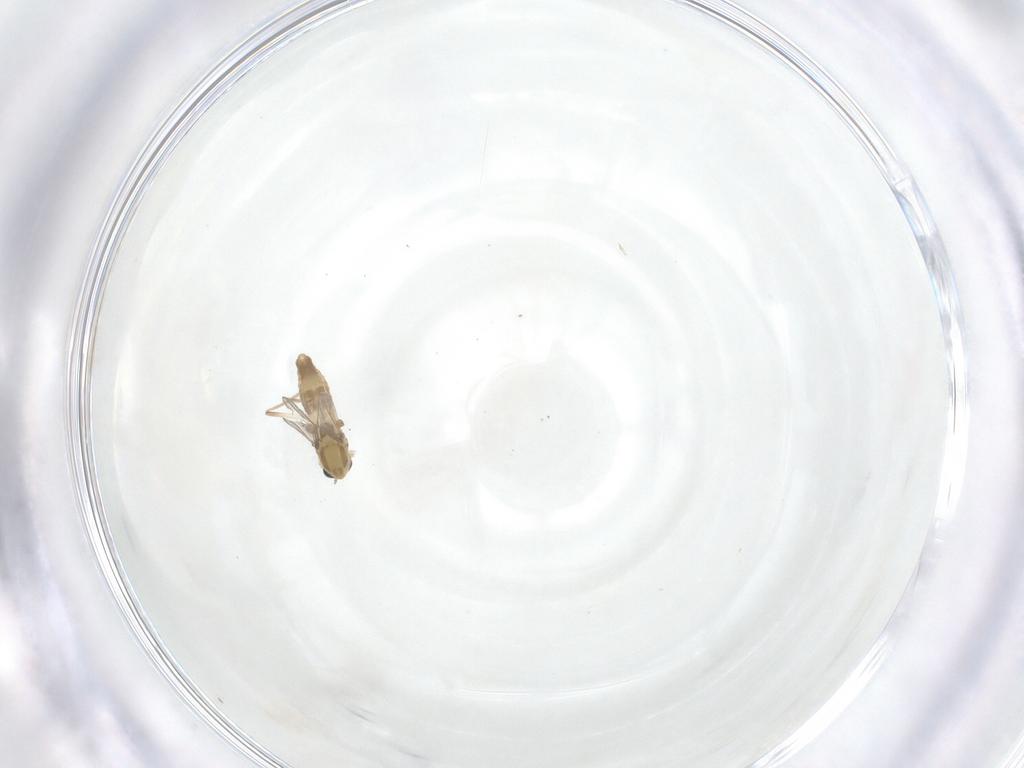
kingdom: Animalia
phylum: Arthropoda
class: Insecta
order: Diptera
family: Chironomidae
